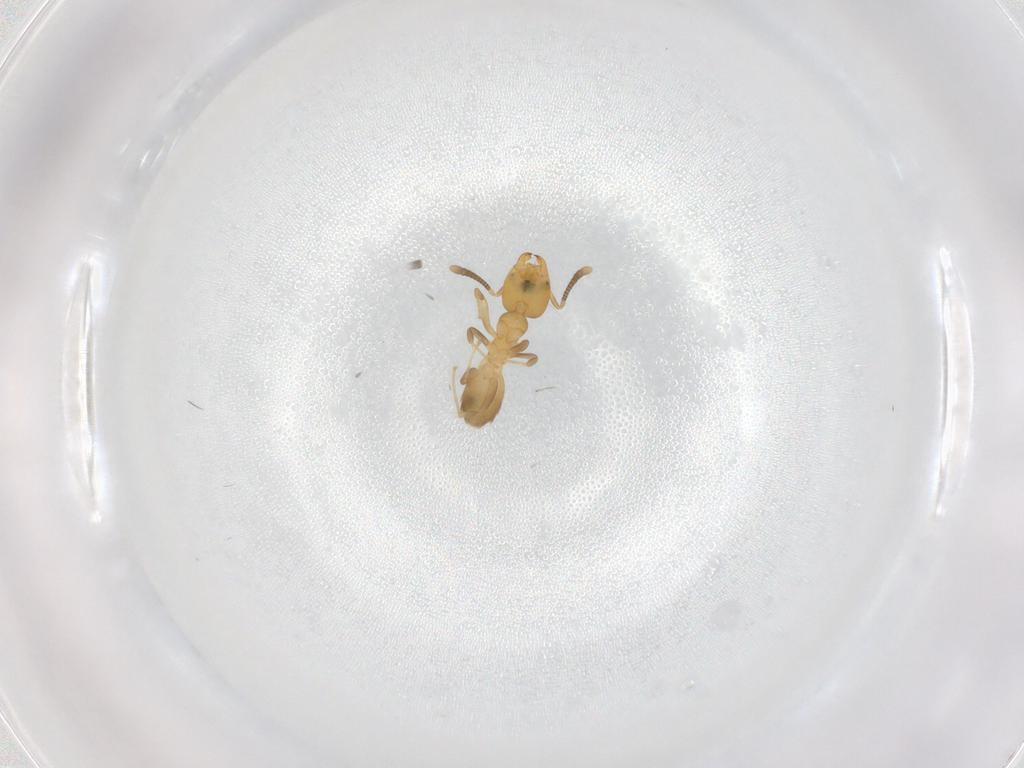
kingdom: Animalia
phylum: Arthropoda
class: Insecta
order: Hymenoptera
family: Formicidae
